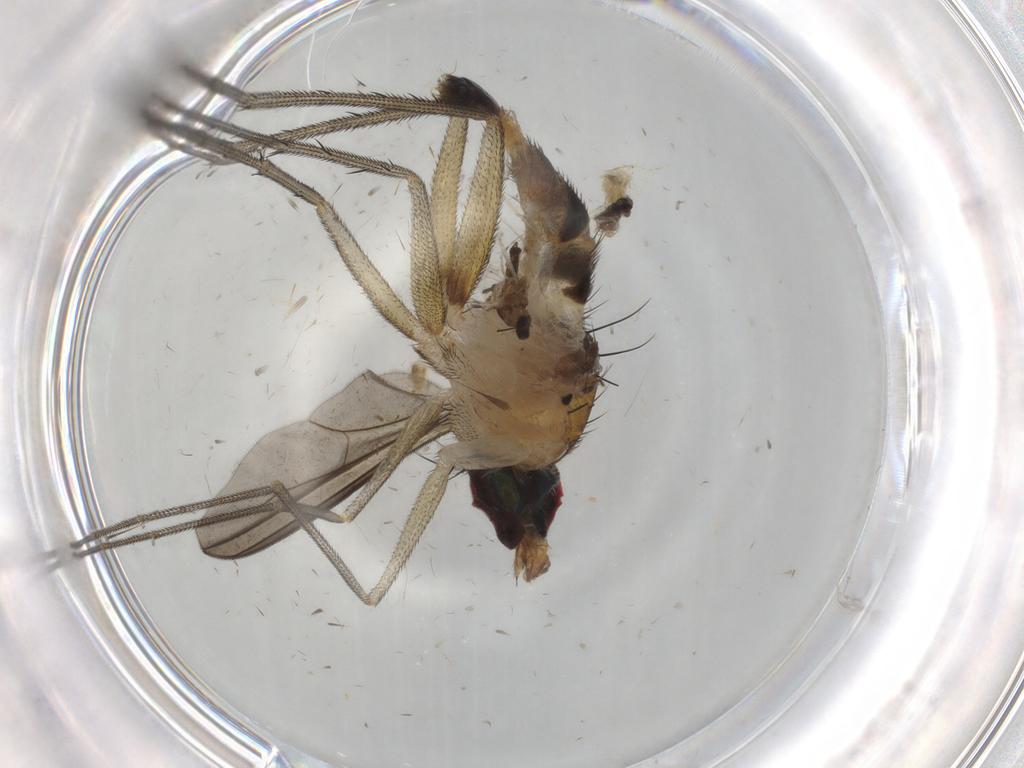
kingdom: Animalia
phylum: Arthropoda
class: Insecta
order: Diptera
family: Dolichopodidae
